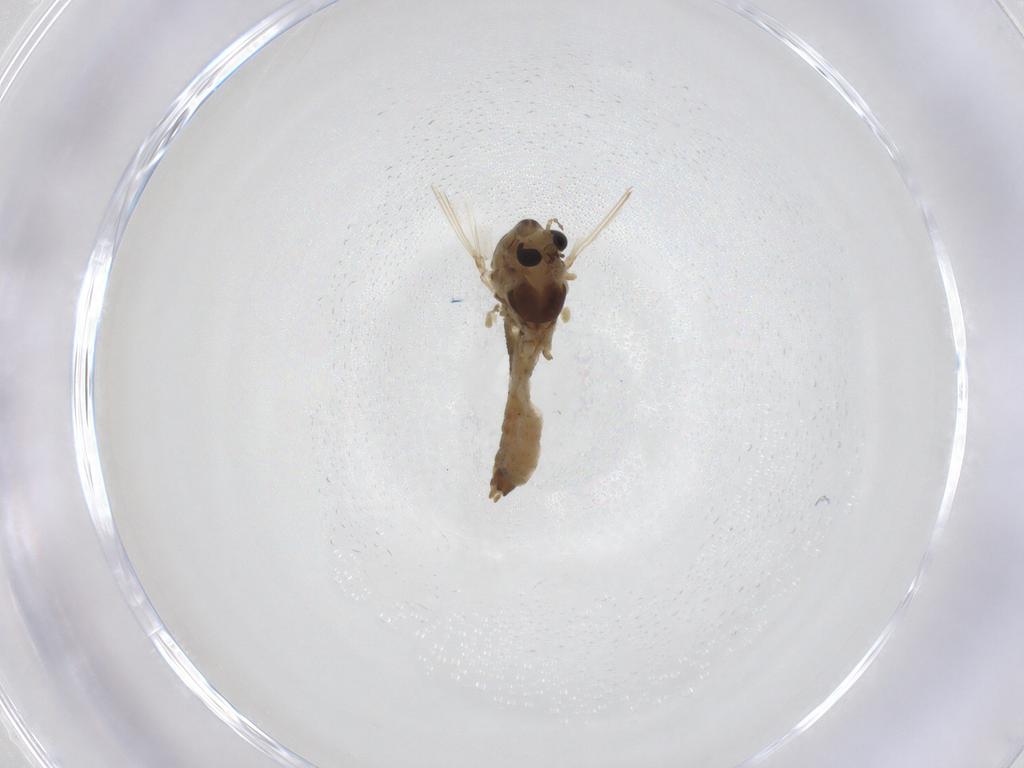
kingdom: Animalia
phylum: Arthropoda
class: Insecta
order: Diptera
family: Chironomidae
